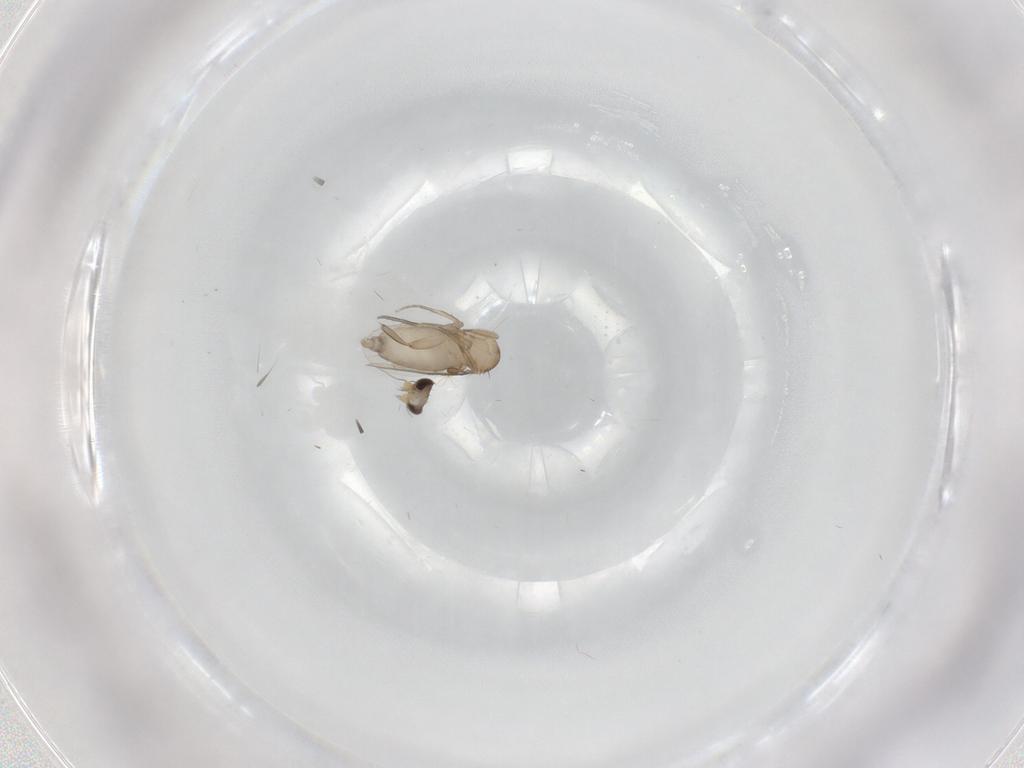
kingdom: Animalia
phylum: Arthropoda
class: Insecta
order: Diptera
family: Phoridae
